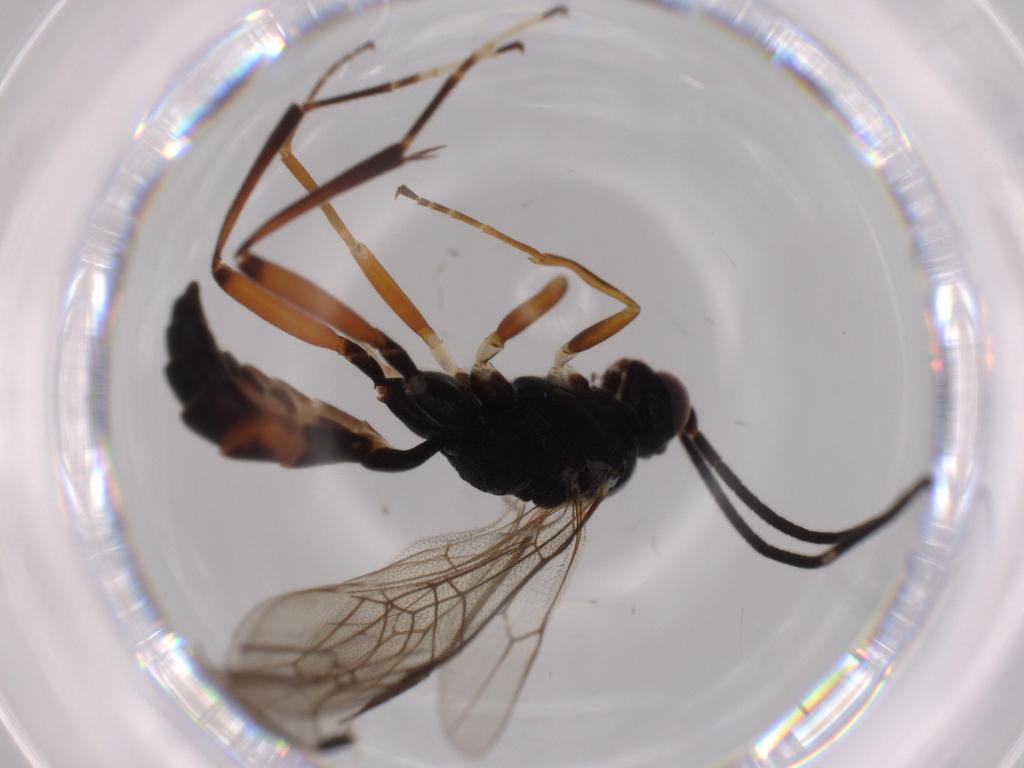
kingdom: Animalia
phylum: Arthropoda
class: Insecta
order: Hymenoptera
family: Ichneumonidae
